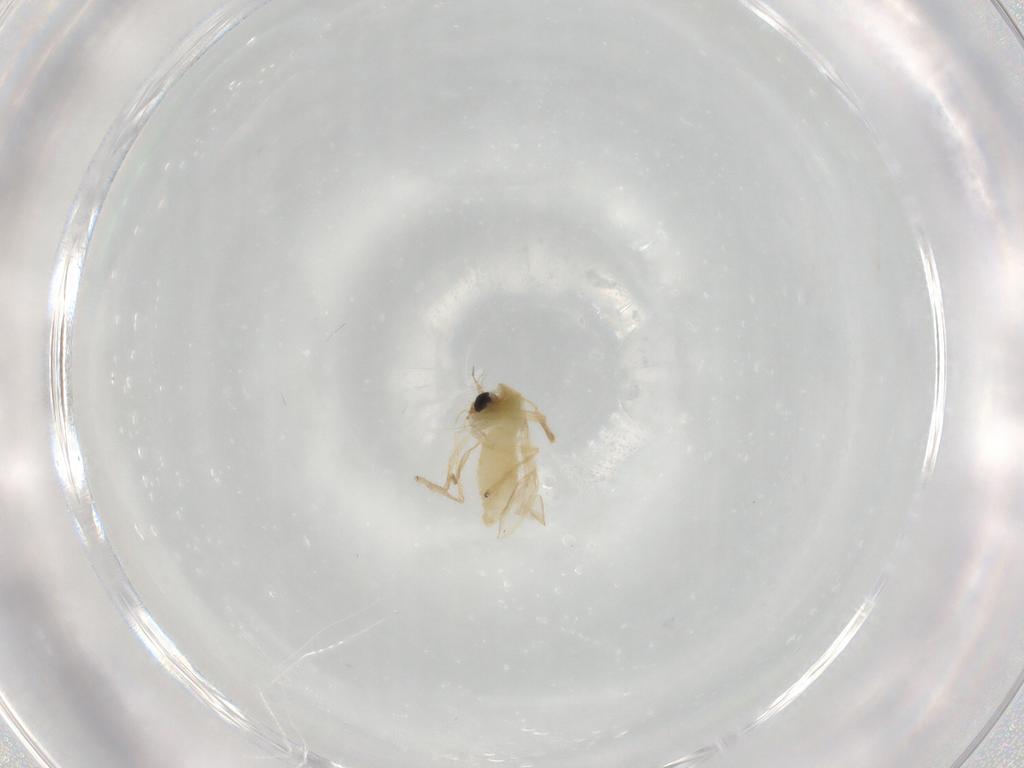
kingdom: Animalia
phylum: Arthropoda
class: Insecta
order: Diptera
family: Chironomidae
